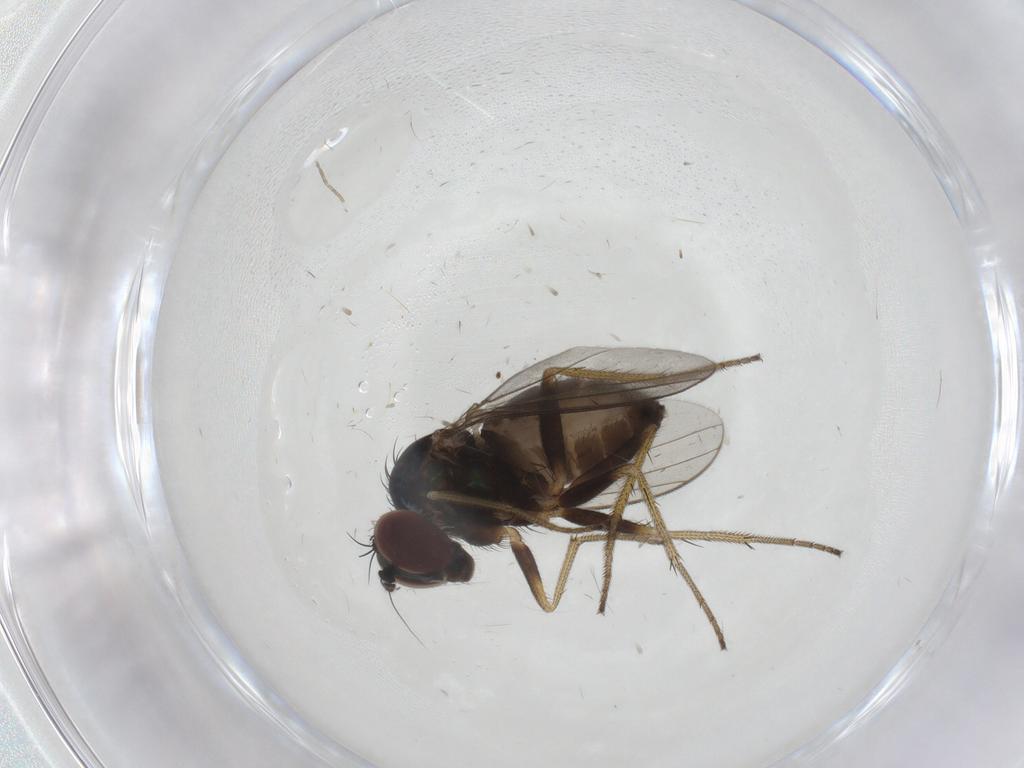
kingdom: Animalia
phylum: Arthropoda
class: Insecta
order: Diptera
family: Dolichopodidae
